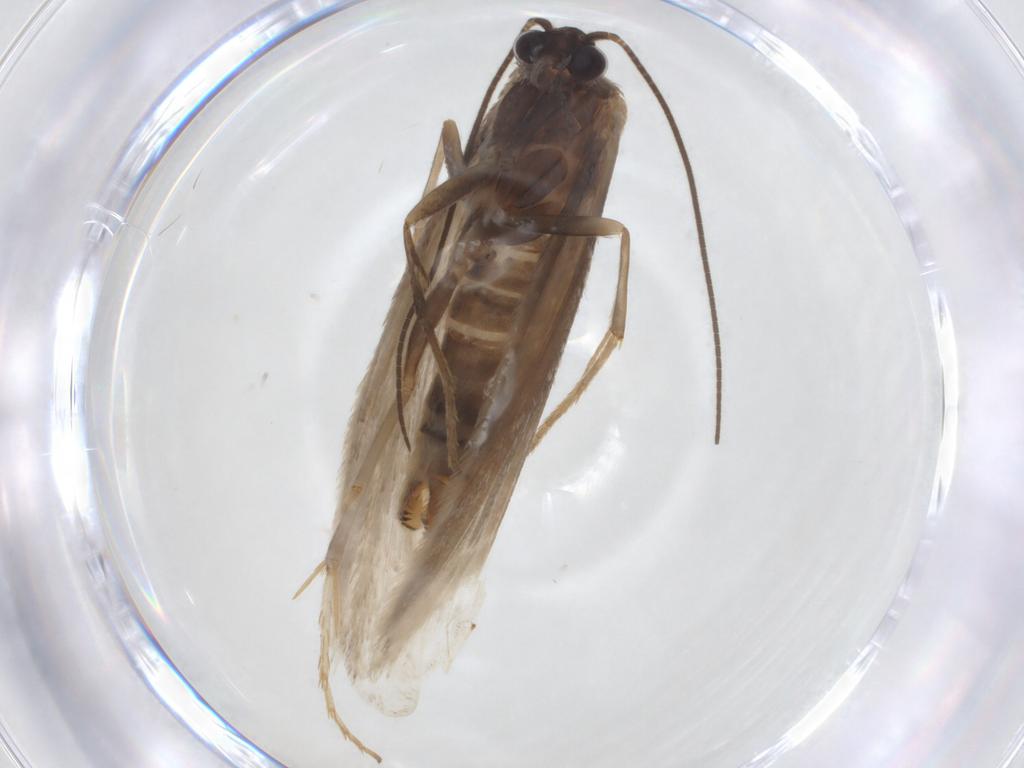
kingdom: Animalia
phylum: Arthropoda
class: Insecta
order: Lepidoptera
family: Tridentaformidae
